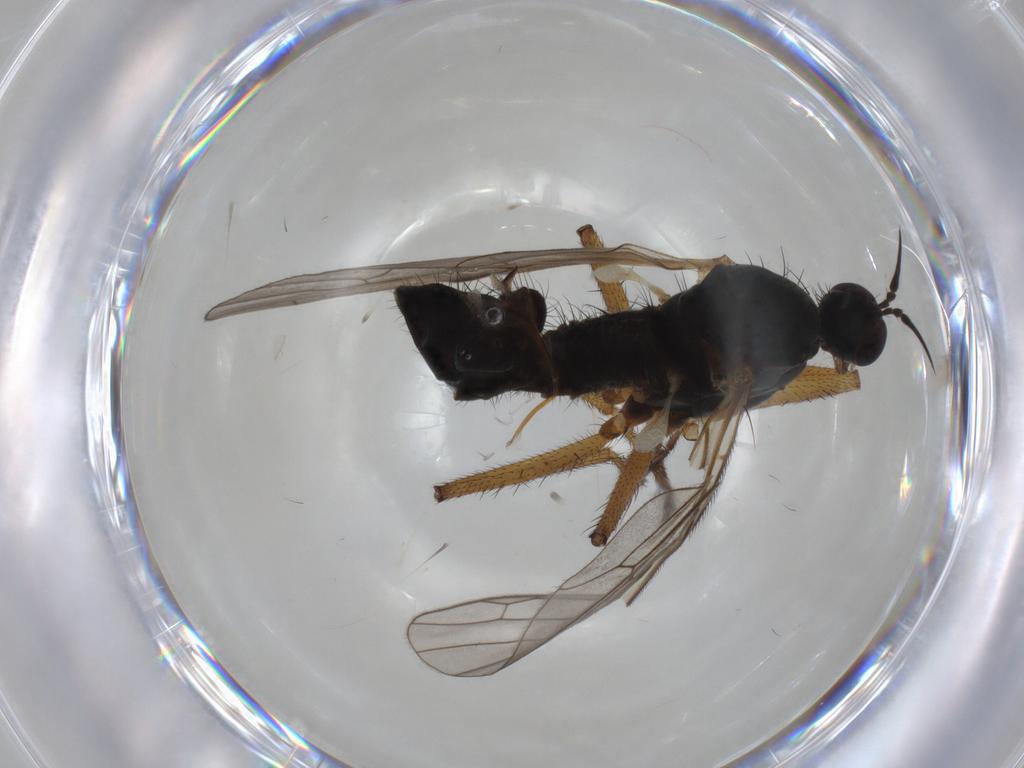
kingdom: Animalia
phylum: Arthropoda
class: Insecta
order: Diptera
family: Empididae
